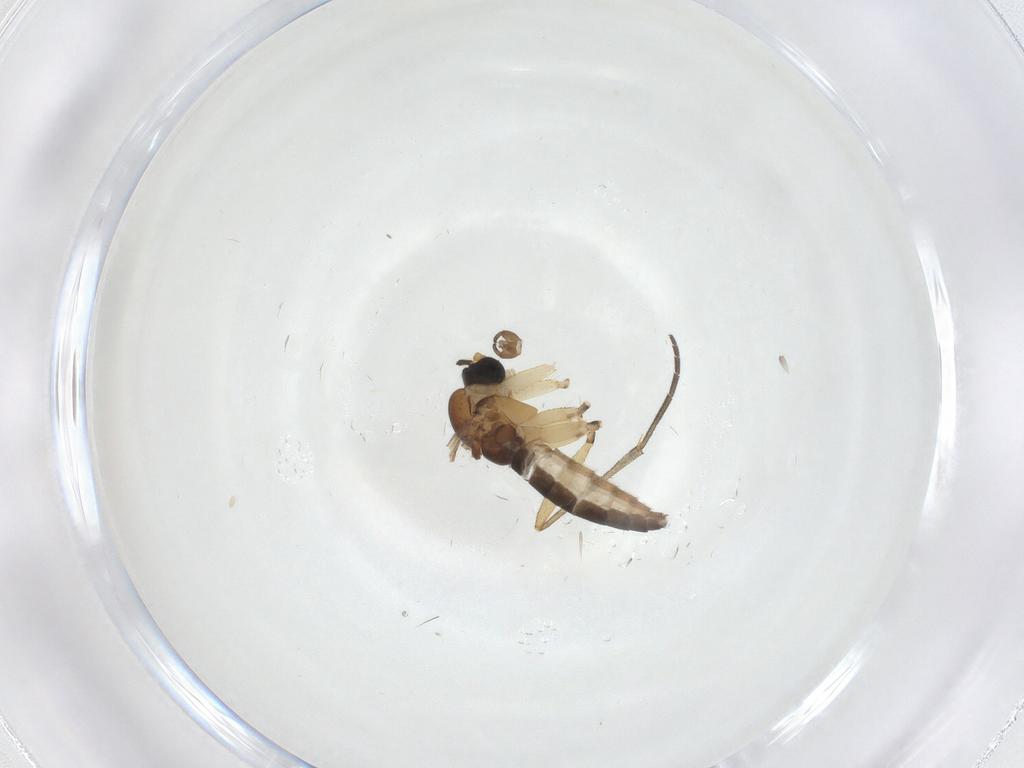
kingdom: Animalia
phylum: Arthropoda
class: Insecta
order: Diptera
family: Sciaridae
